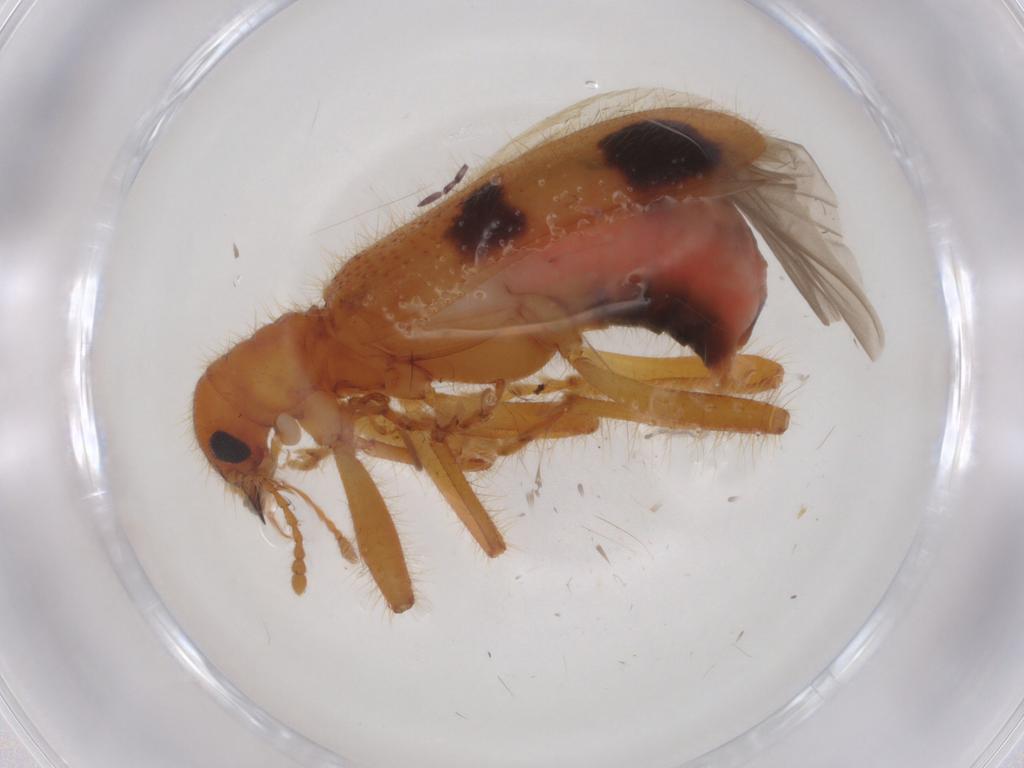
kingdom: Animalia
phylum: Arthropoda
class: Insecta
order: Coleoptera
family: Cleridae
